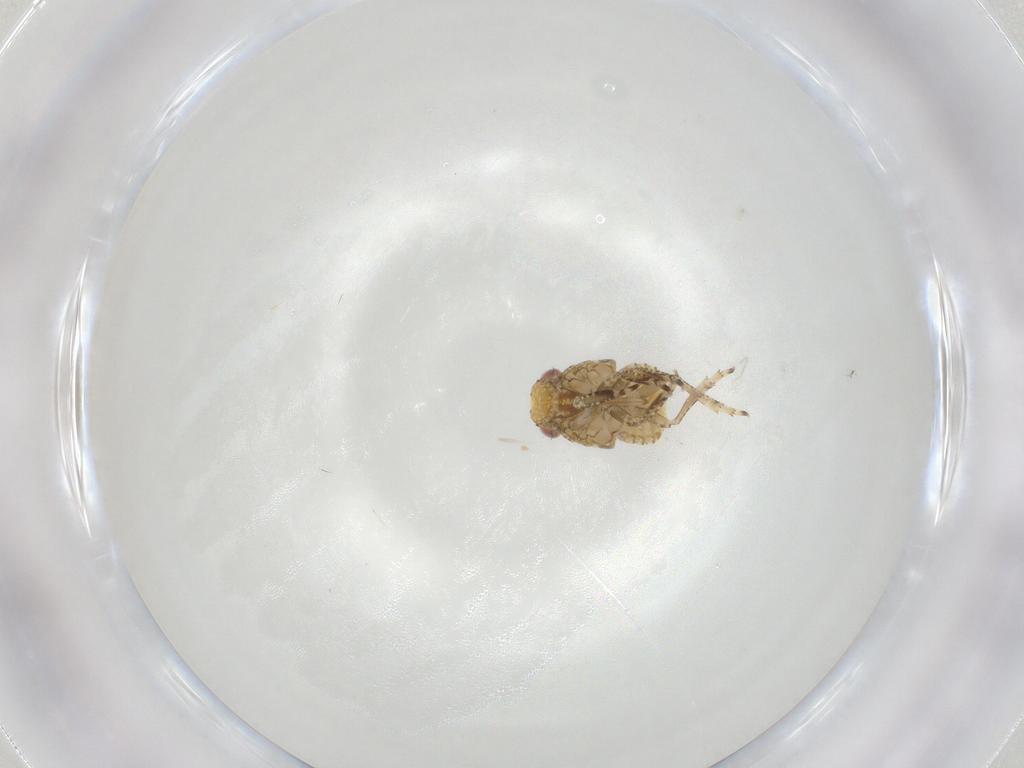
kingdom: Animalia
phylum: Arthropoda
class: Insecta
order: Hemiptera
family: Fulgoroidea_incertae_sedis
